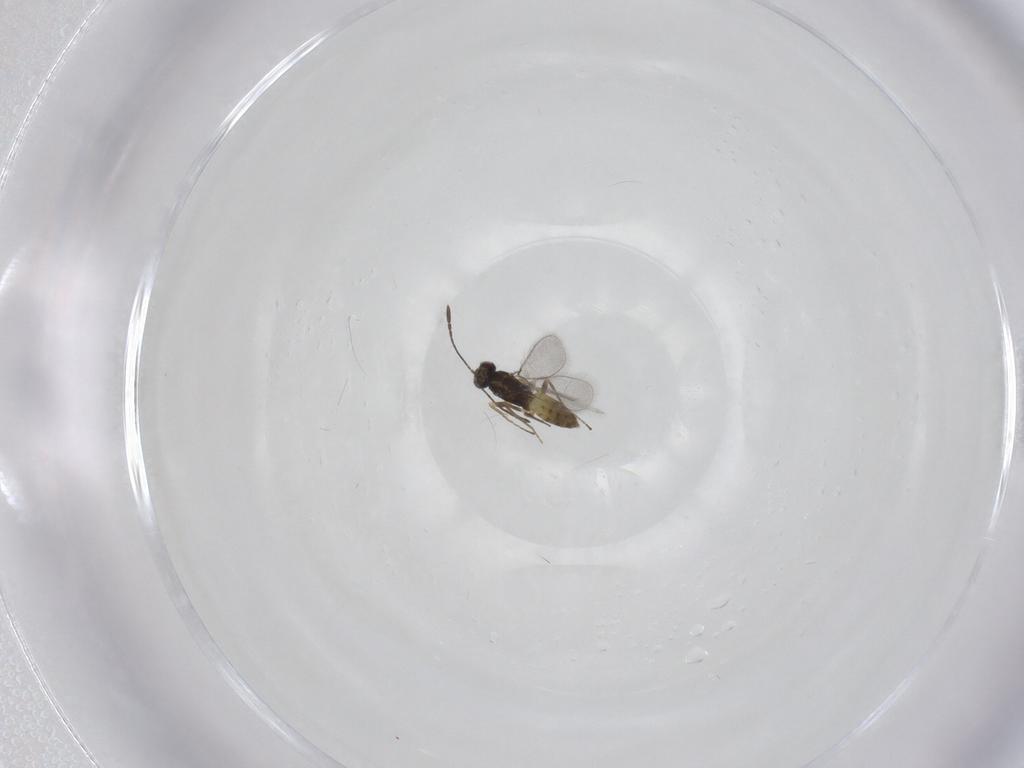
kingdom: Animalia
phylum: Arthropoda
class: Insecta
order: Hymenoptera
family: Mymaridae
